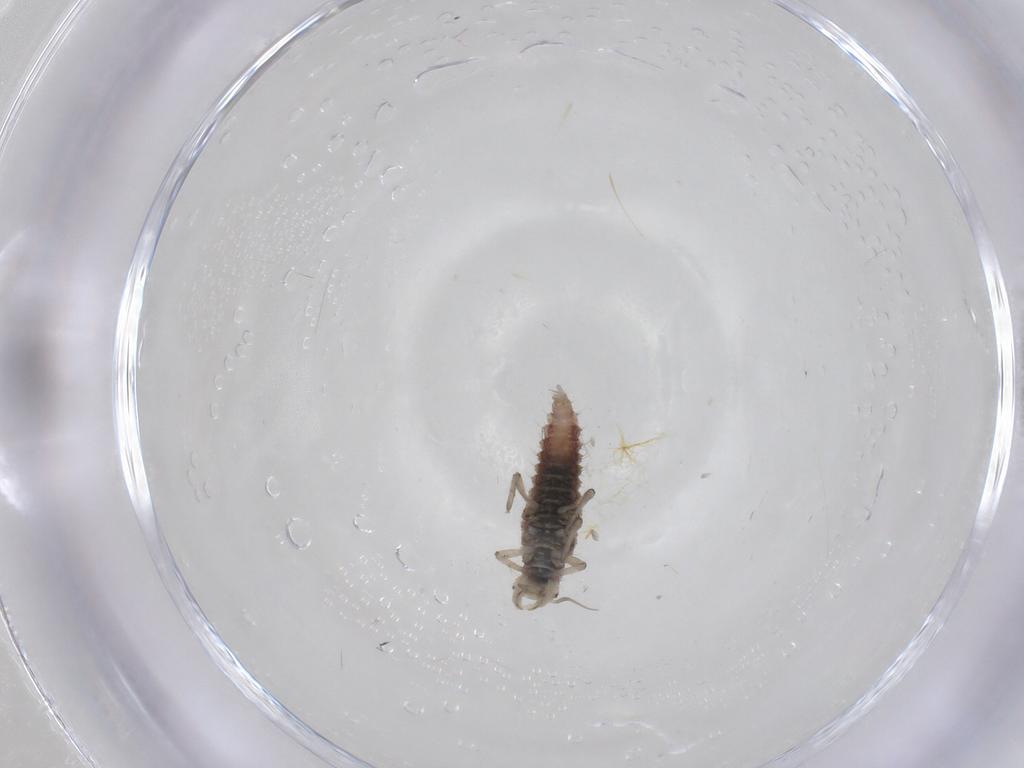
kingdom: Animalia
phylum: Arthropoda
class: Insecta
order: Neuroptera
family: Hemerobiidae
